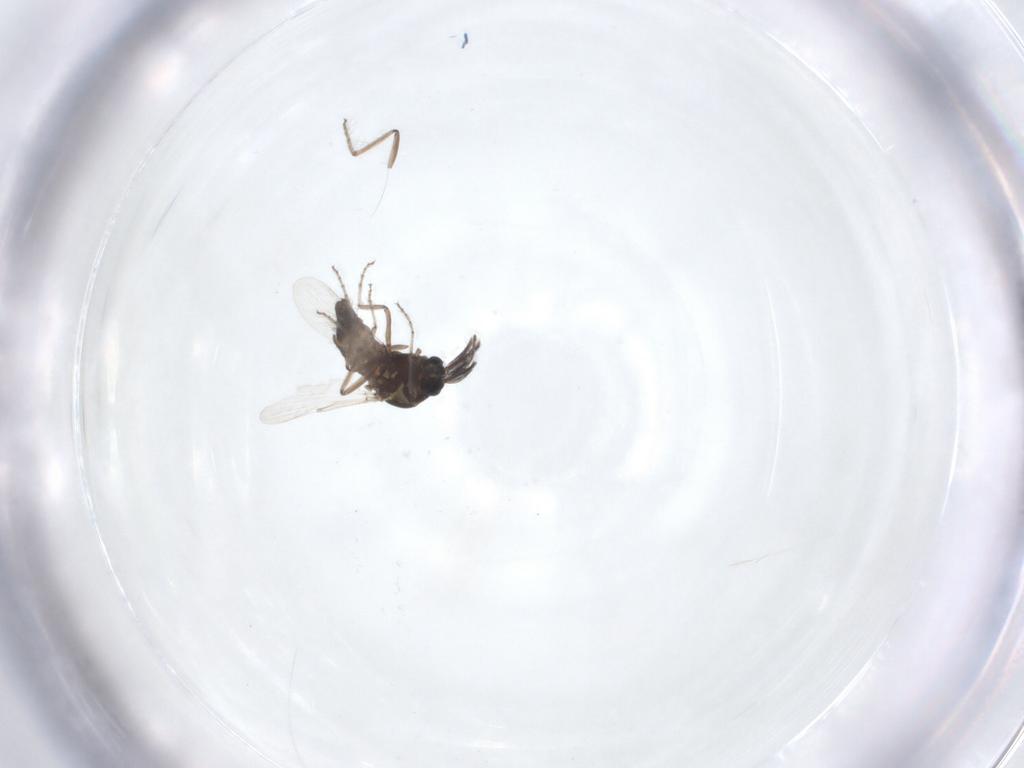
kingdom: Animalia
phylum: Arthropoda
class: Insecta
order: Diptera
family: Ceratopogonidae
